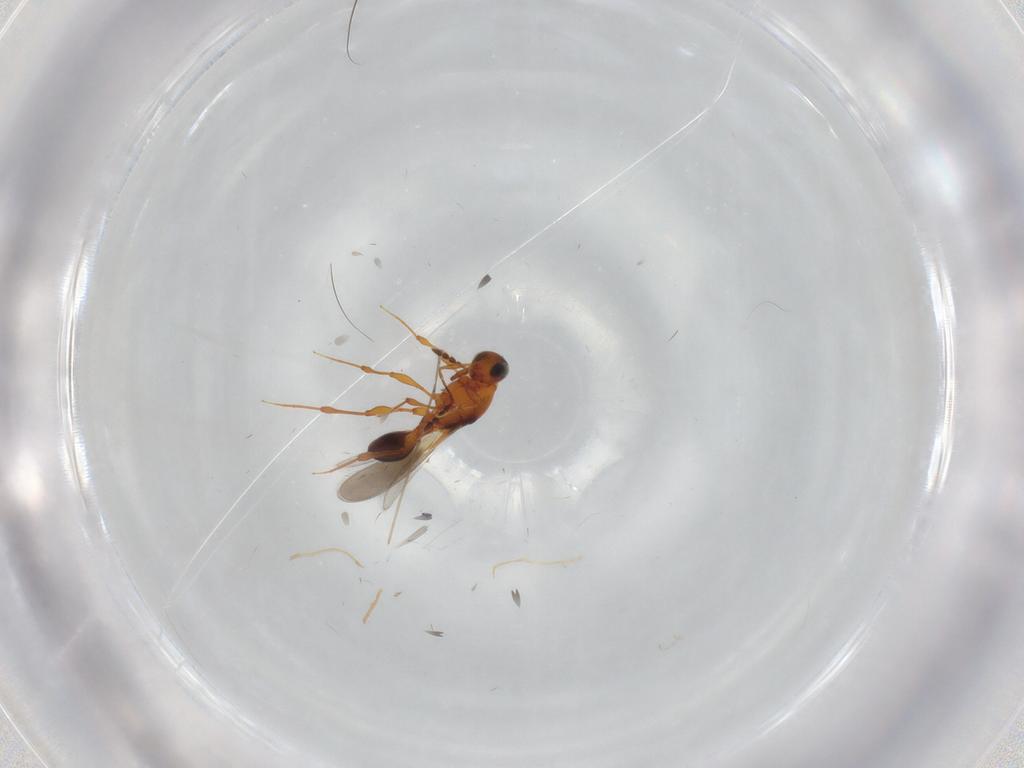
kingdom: Animalia
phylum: Arthropoda
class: Insecta
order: Hymenoptera
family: Platygastridae
